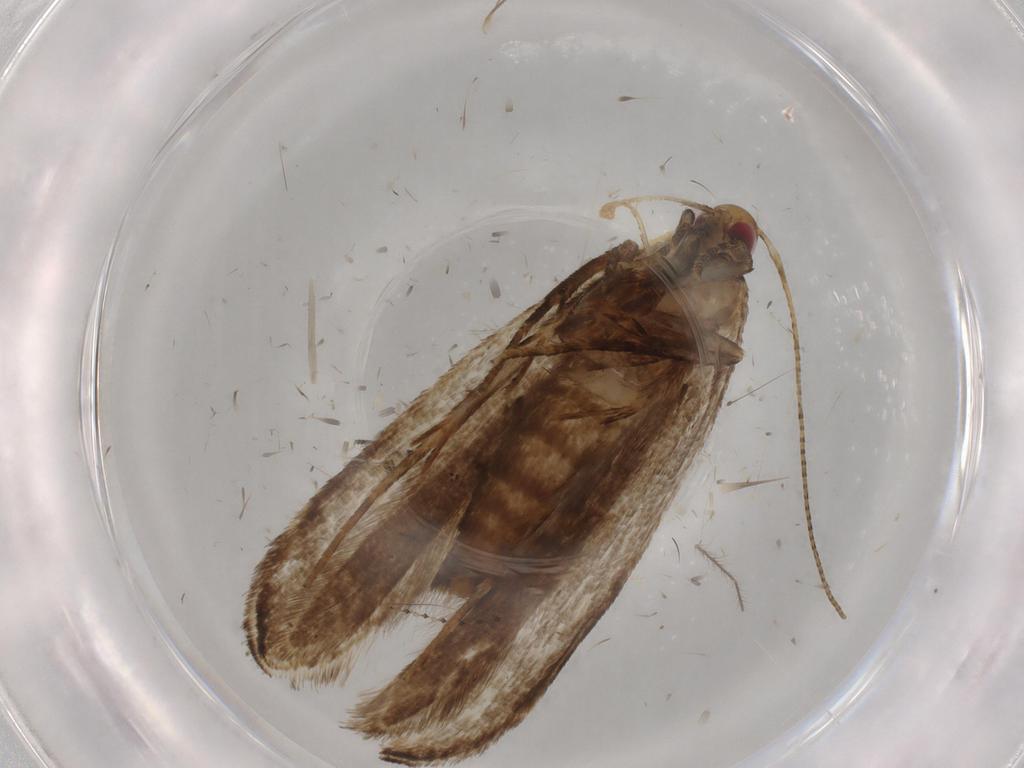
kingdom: Animalia
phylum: Arthropoda
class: Insecta
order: Lepidoptera
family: Gelechiidae
